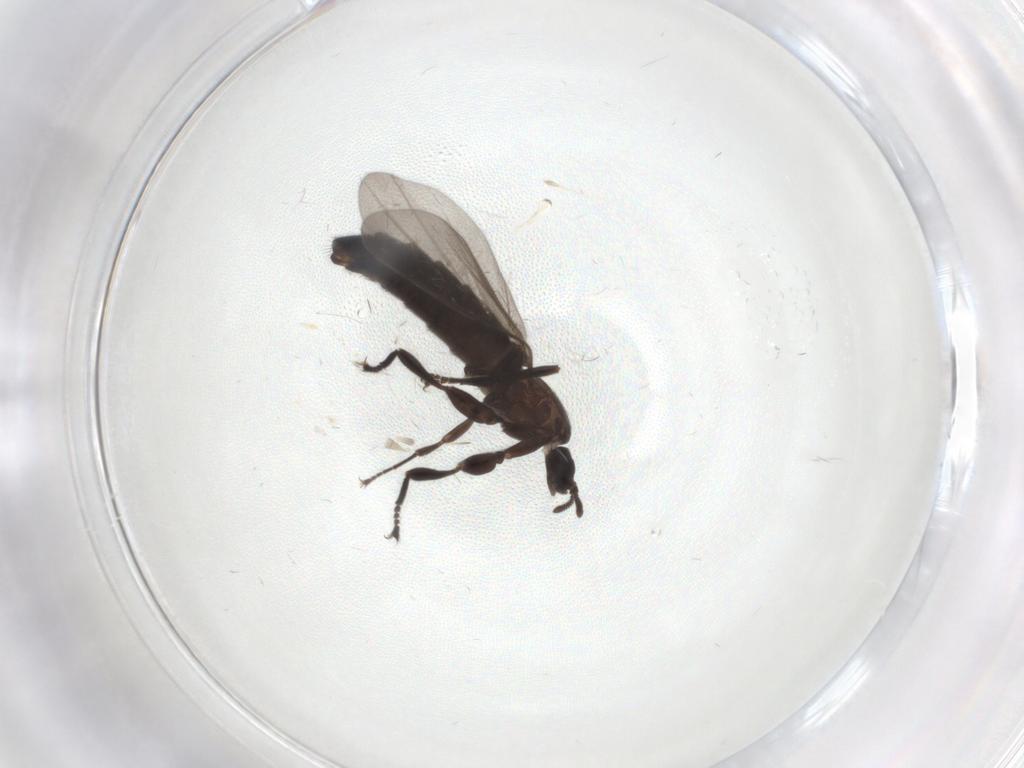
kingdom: Animalia
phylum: Arthropoda
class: Insecta
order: Diptera
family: Scatopsidae
